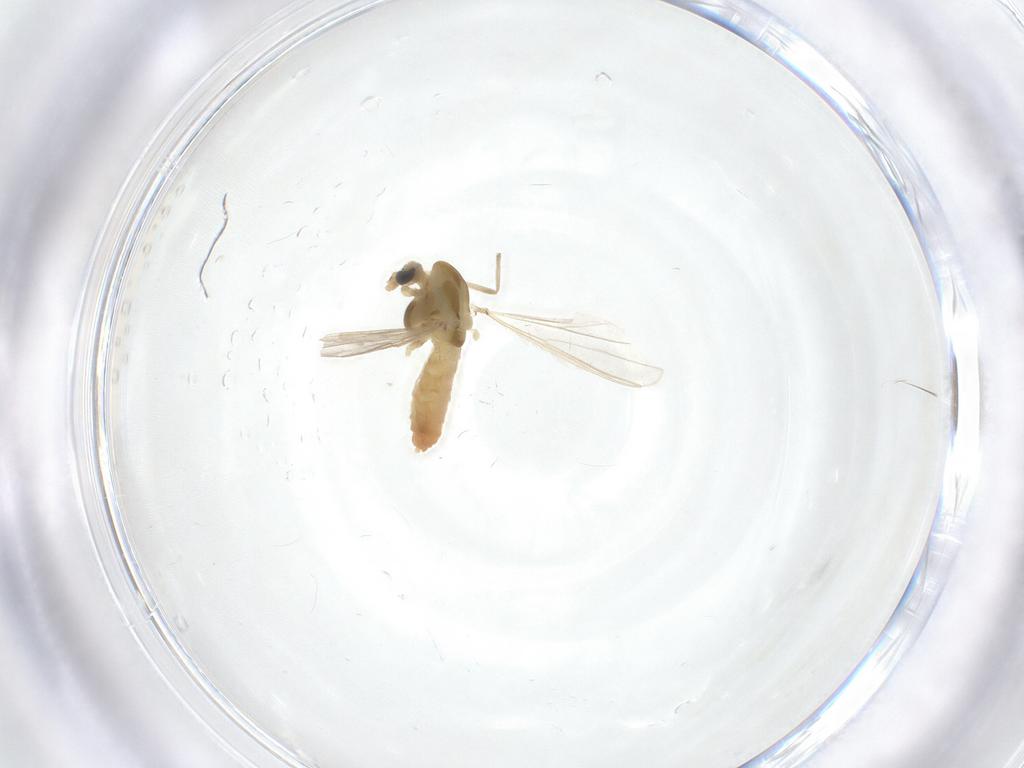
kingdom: Animalia
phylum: Arthropoda
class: Insecta
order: Diptera
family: Chironomidae
